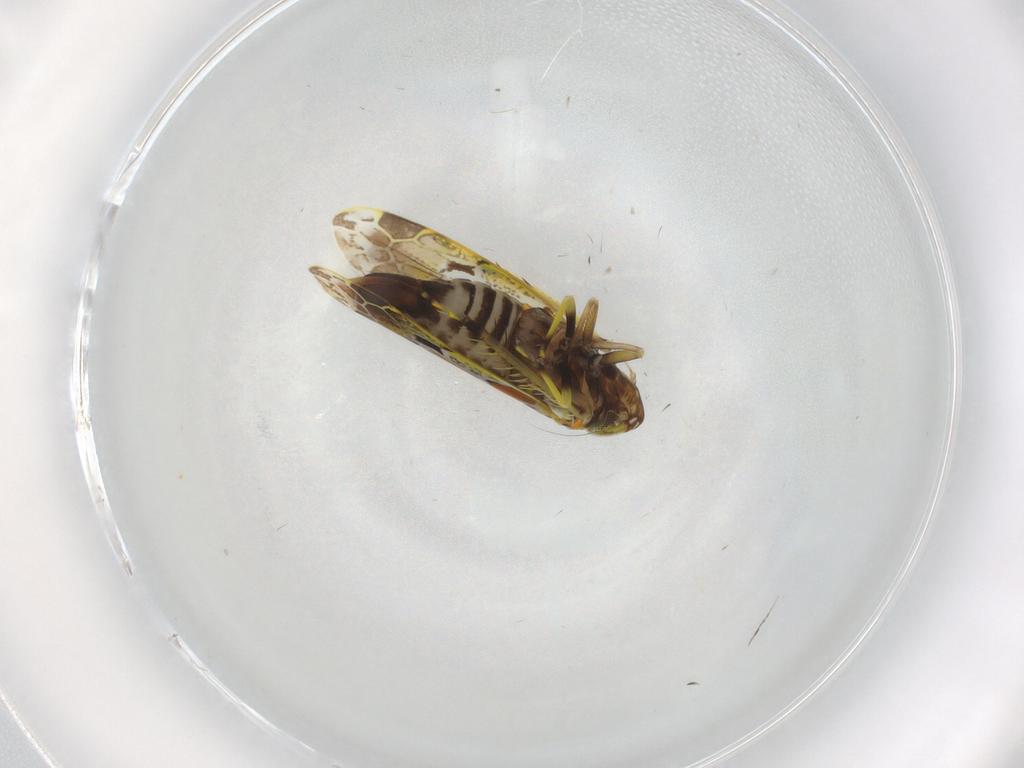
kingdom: Animalia
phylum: Arthropoda
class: Insecta
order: Hemiptera
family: Cicadellidae
